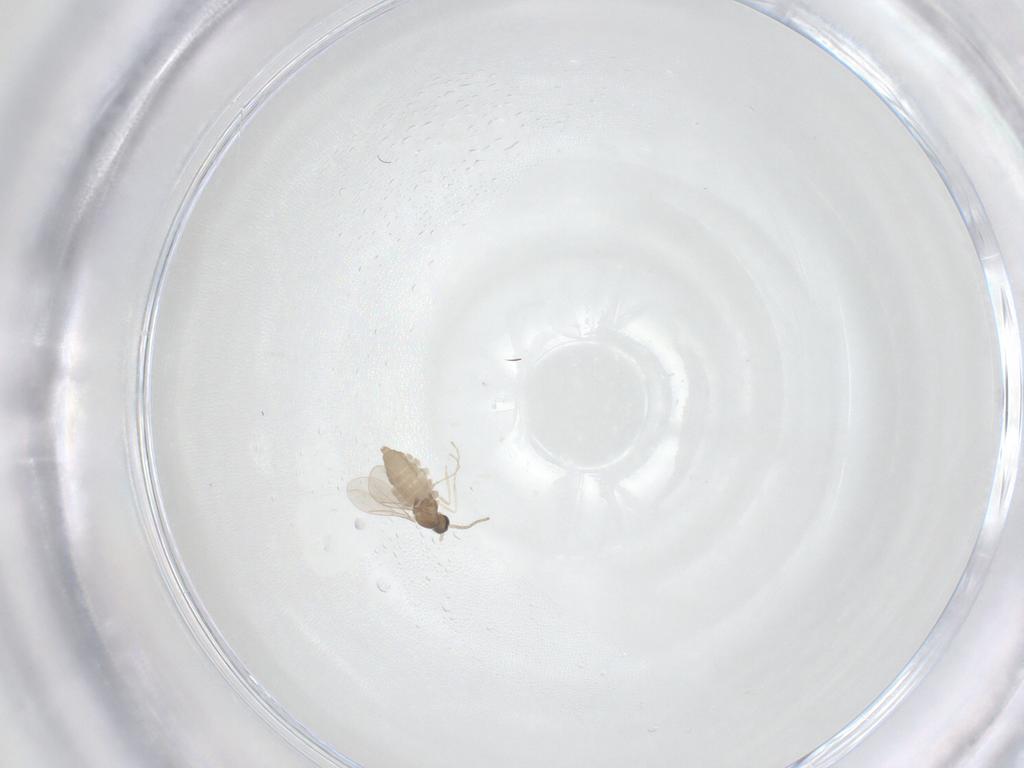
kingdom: Animalia
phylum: Arthropoda
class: Insecta
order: Diptera
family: Cecidomyiidae
